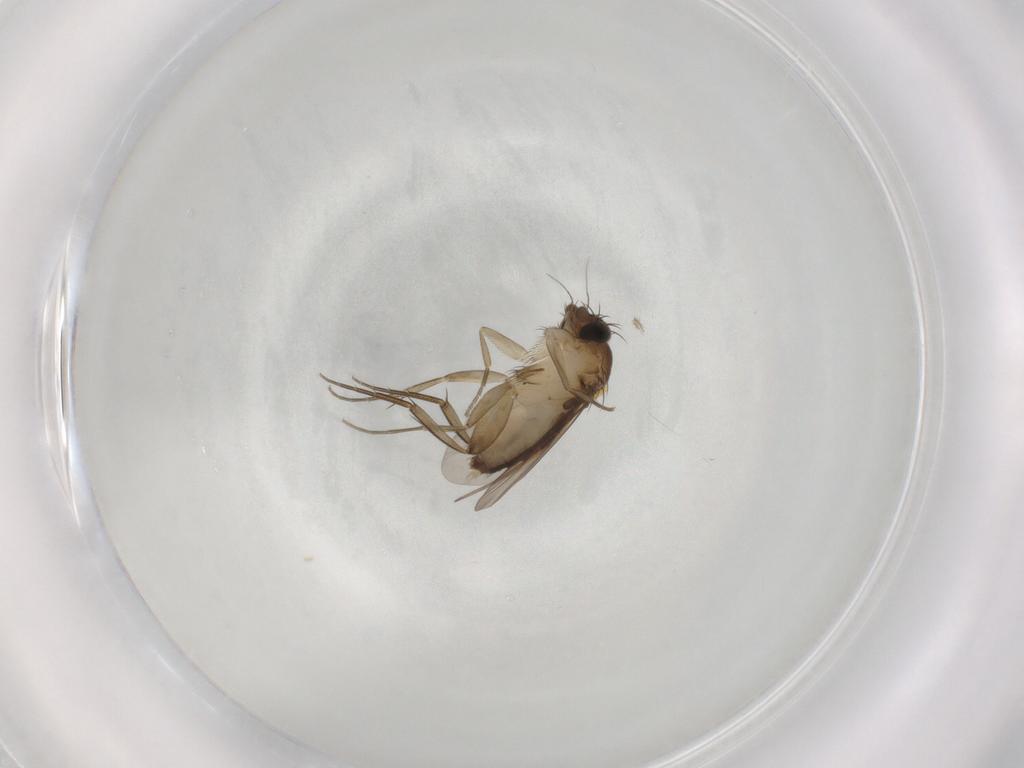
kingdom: Animalia
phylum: Arthropoda
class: Insecta
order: Diptera
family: Phoridae
